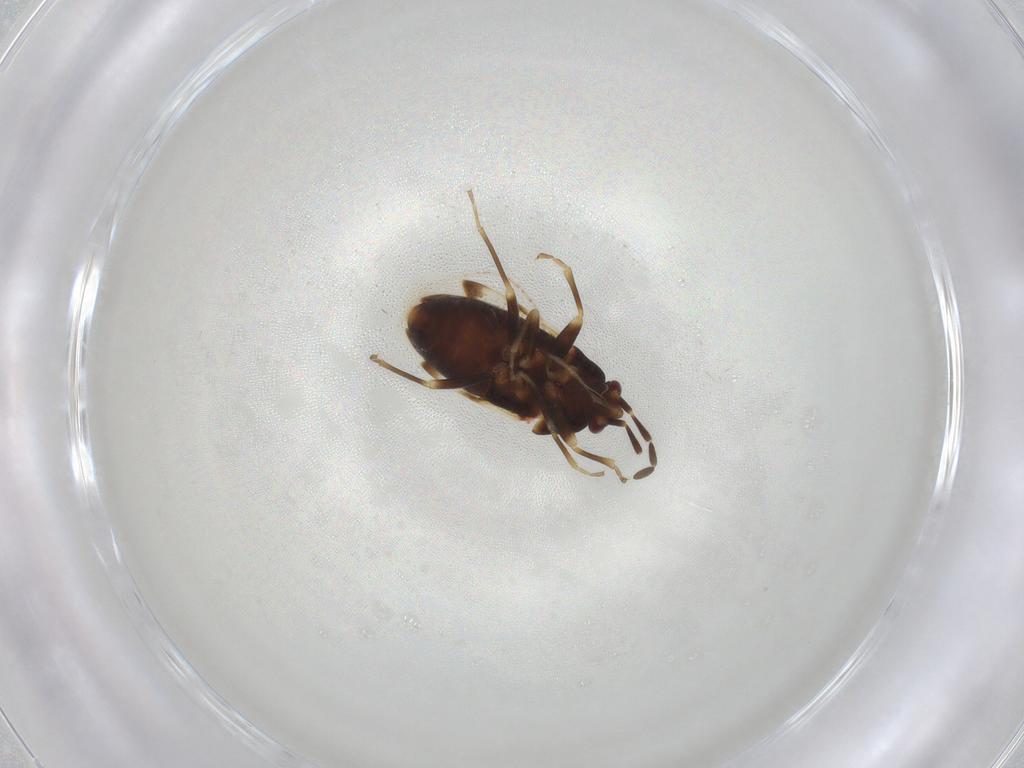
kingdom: Animalia
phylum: Arthropoda
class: Insecta
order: Hemiptera
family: Rhyparochromidae
